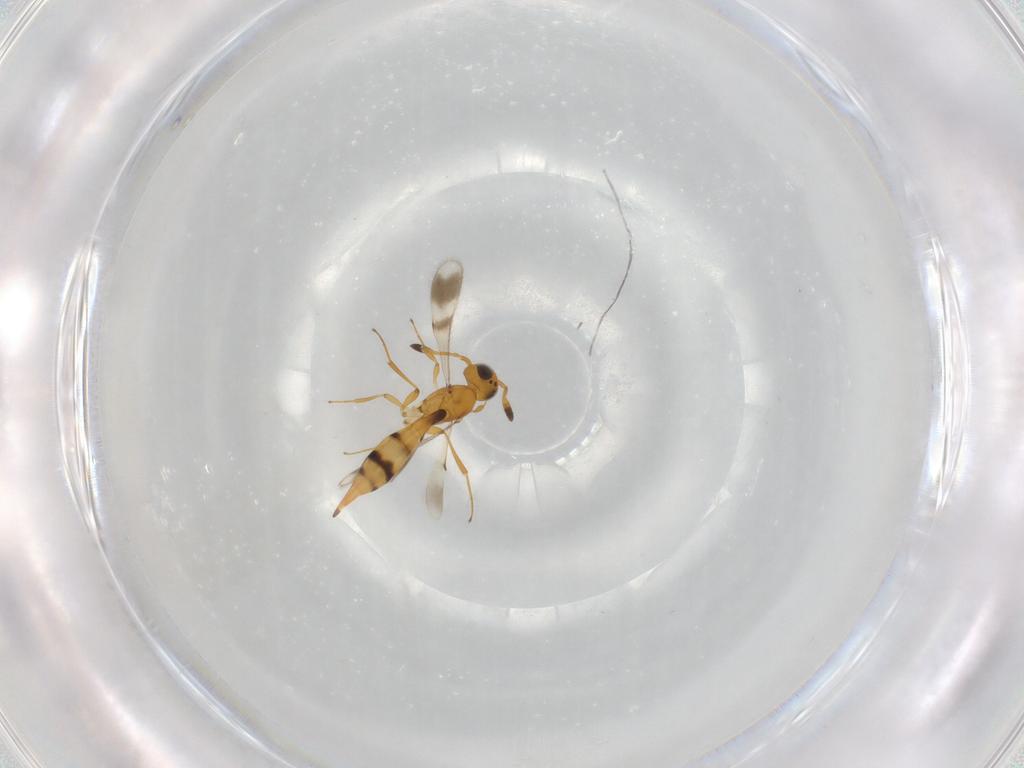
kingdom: Animalia
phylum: Arthropoda
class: Insecta
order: Hymenoptera
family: Scelionidae
